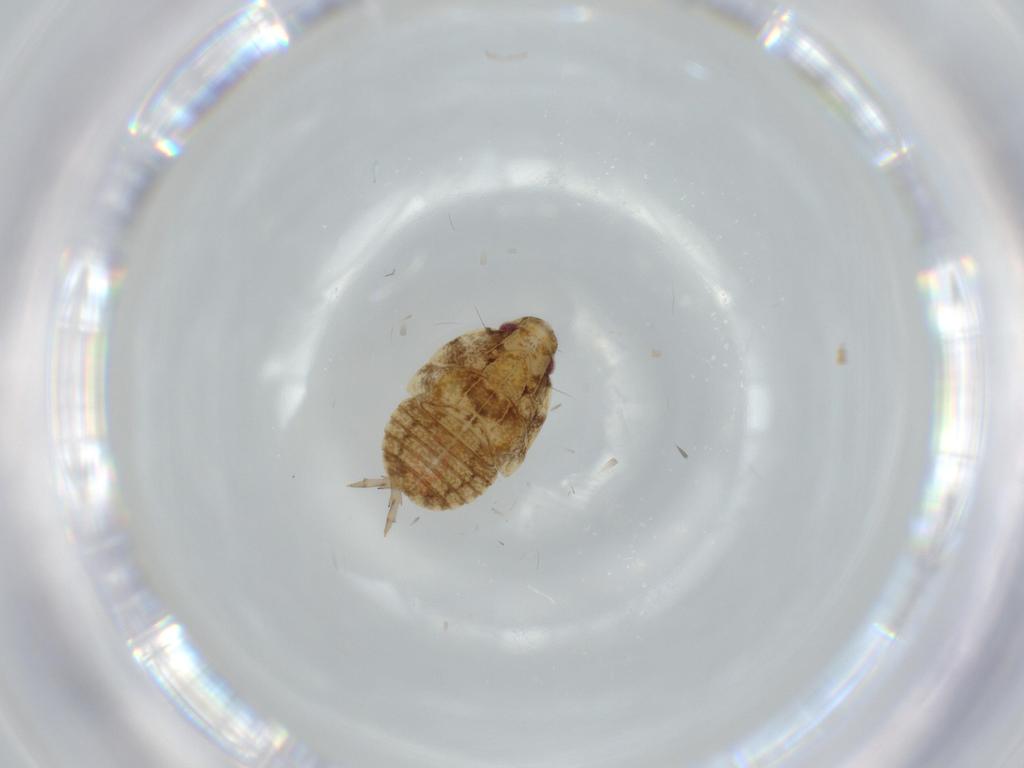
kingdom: Animalia
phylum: Arthropoda
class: Insecta
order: Hemiptera
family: Flatidae
